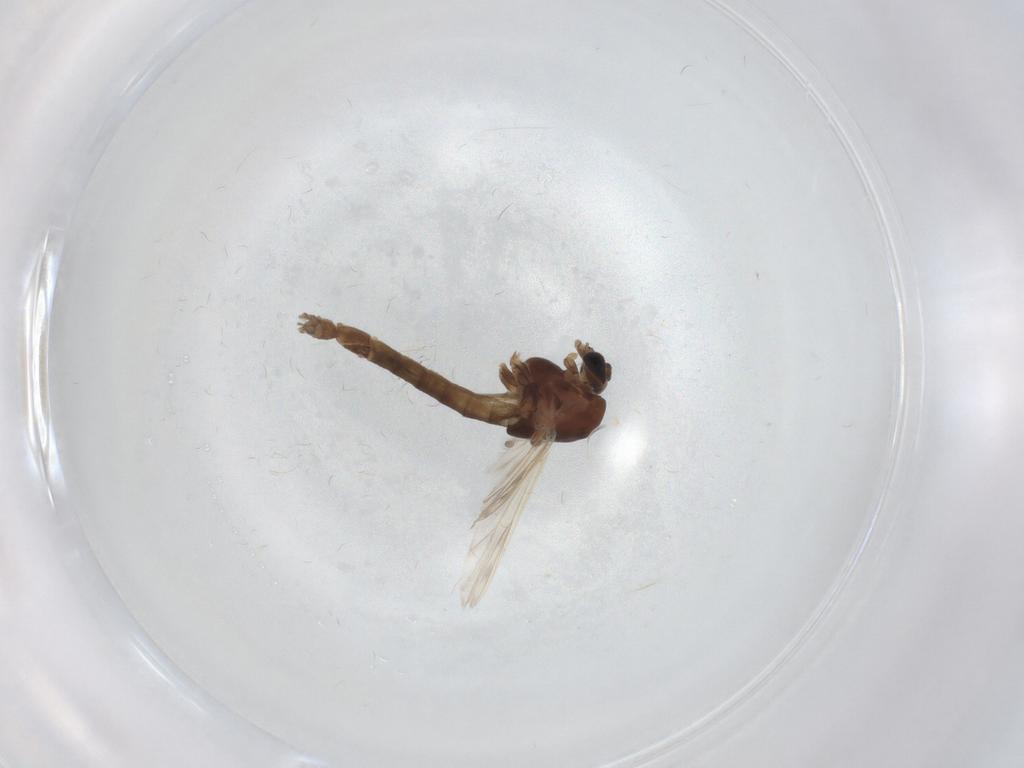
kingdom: Animalia
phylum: Arthropoda
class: Insecta
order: Diptera
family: Chironomidae
